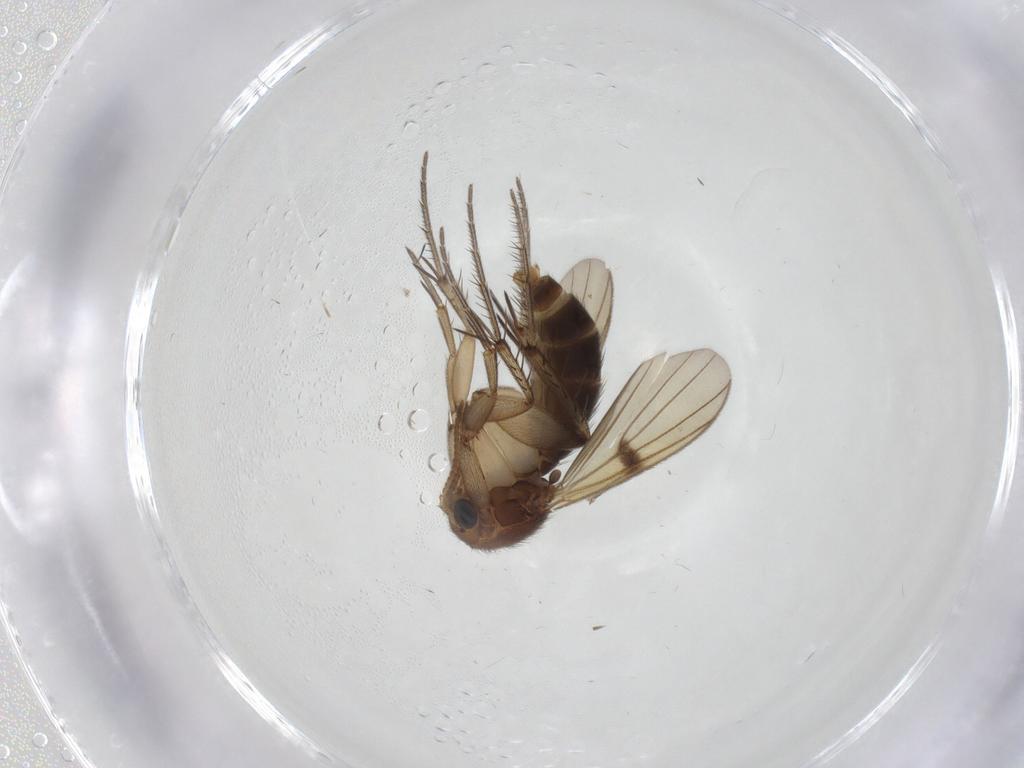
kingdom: Animalia
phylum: Arthropoda
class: Insecta
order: Diptera
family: Mycetophilidae
